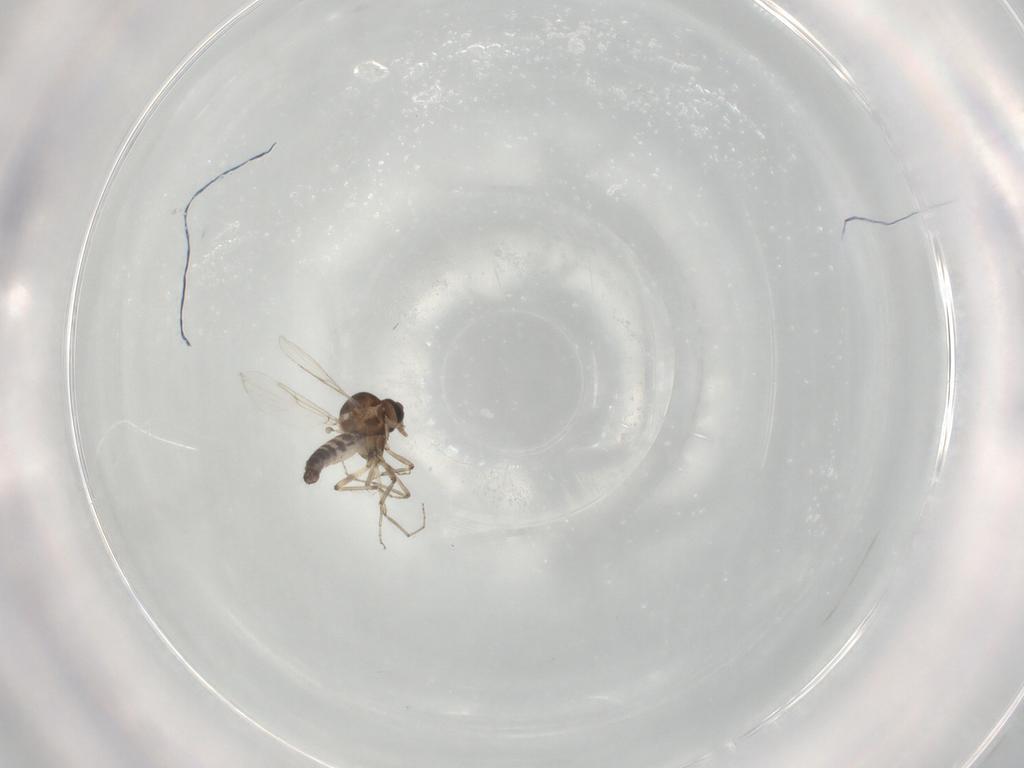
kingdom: Animalia
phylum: Arthropoda
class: Insecta
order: Diptera
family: Ceratopogonidae
